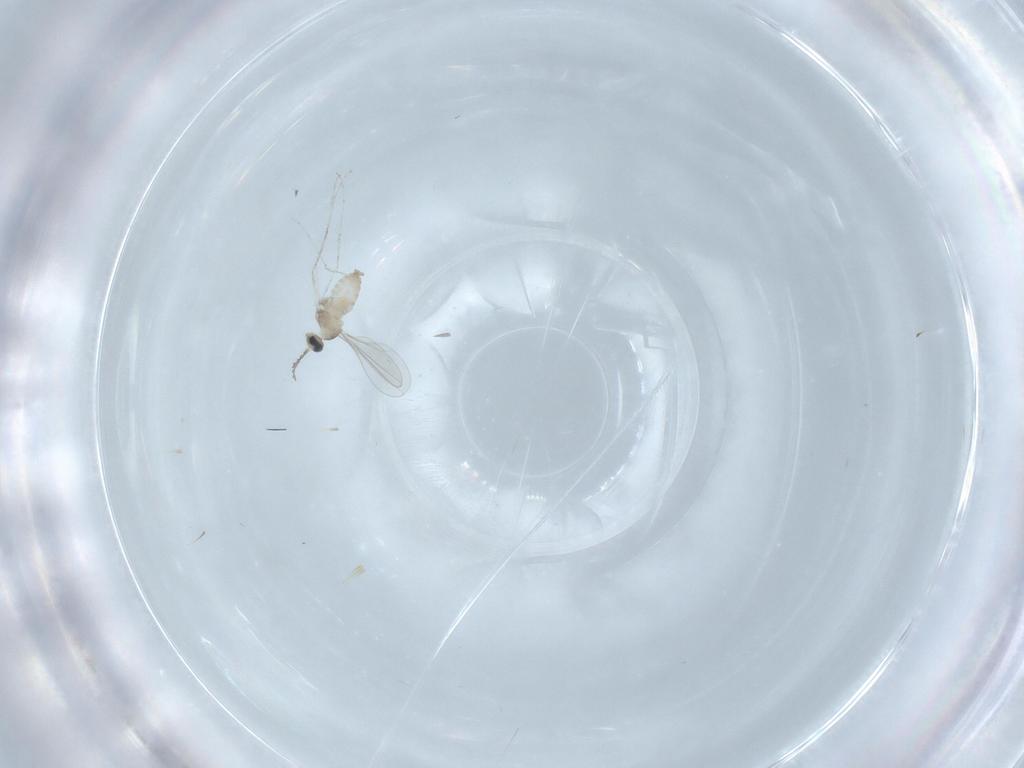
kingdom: Animalia
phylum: Arthropoda
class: Insecta
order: Diptera
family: Cecidomyiidae
